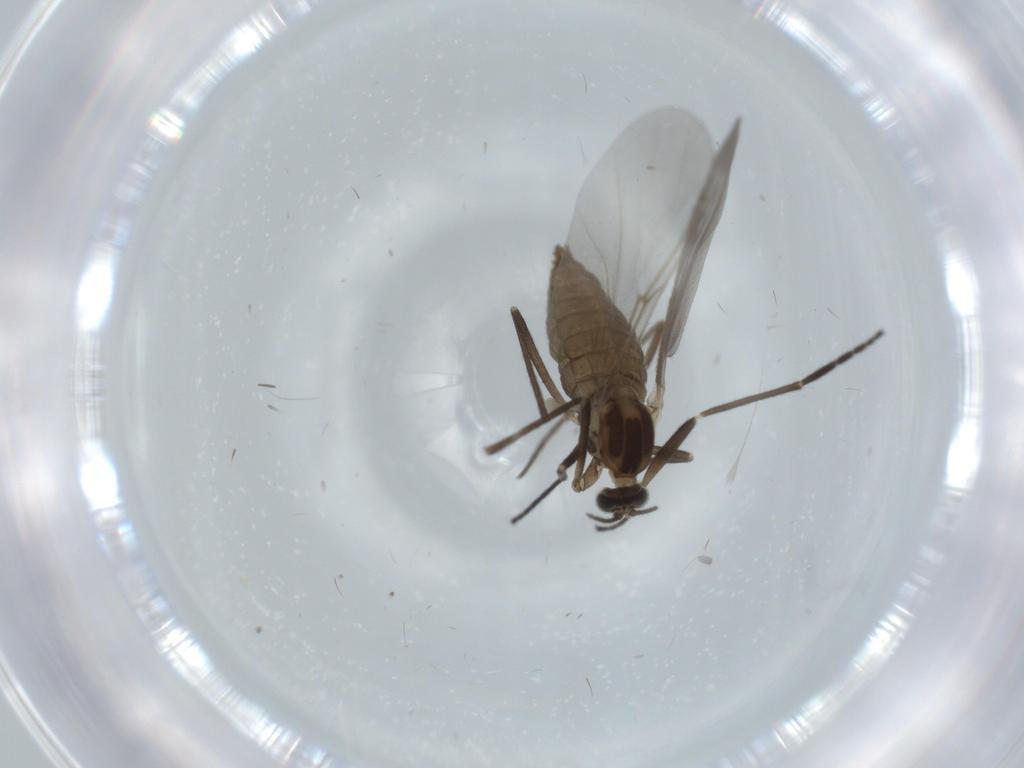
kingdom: Animalia
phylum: Arthropoda
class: Insecta
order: Diptera
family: Cecidomyiidae
